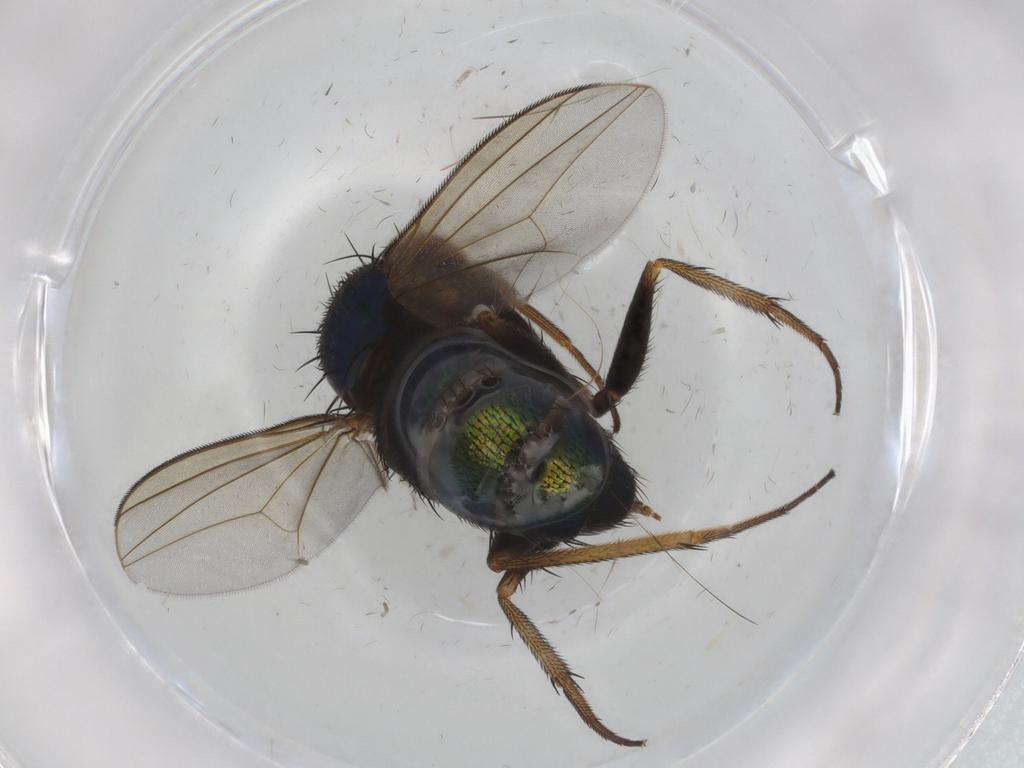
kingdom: Animalia
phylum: Arthropoda
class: Insecta
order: Diptera
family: Dolichopodidae
